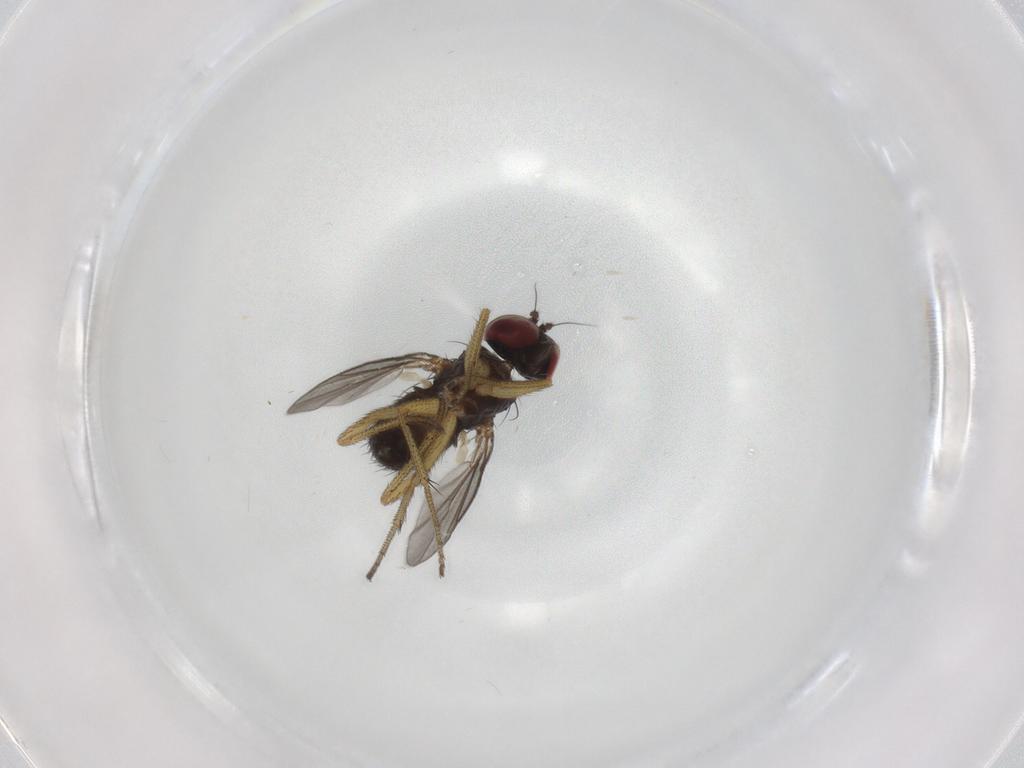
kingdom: Animalia
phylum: Arthropoda
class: Insecta
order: Diptera
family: Dolichopodidae
